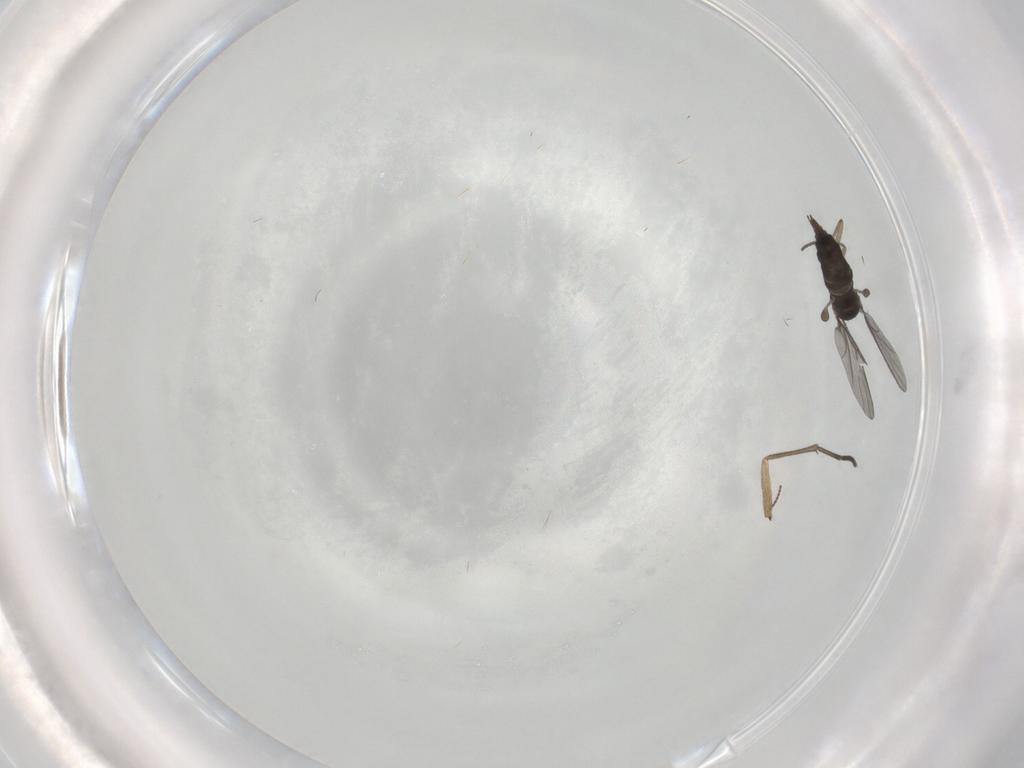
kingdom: Animalia
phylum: Arthropoda
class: Insecta
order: Diptera
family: Sciaridae
